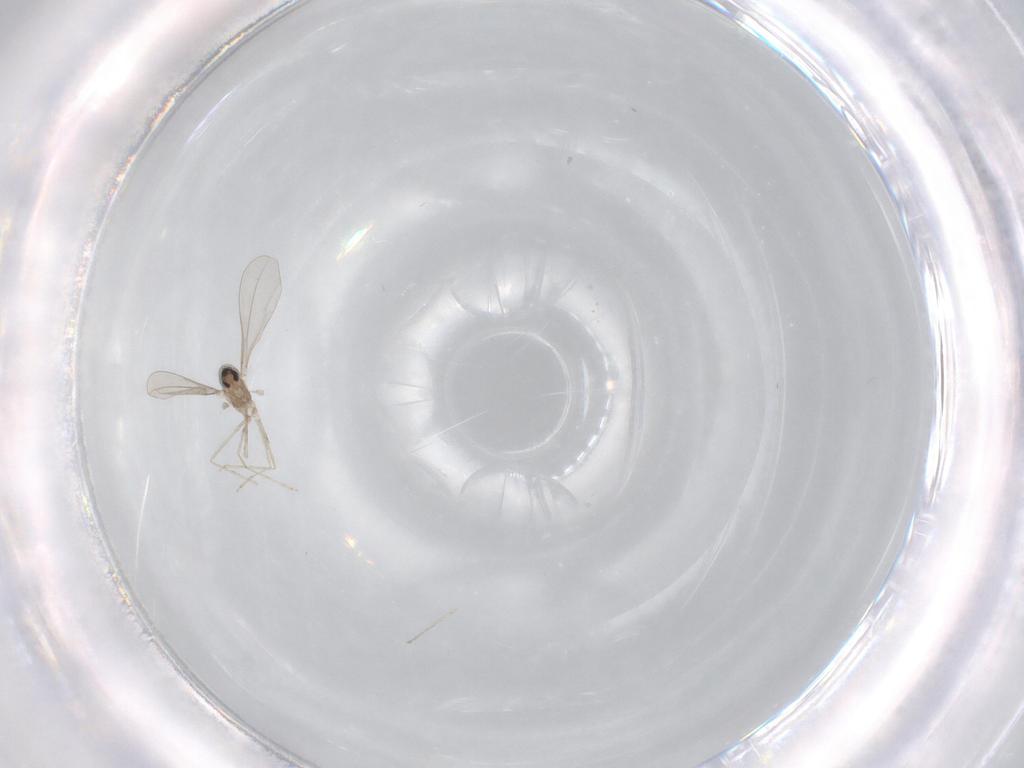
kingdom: Animalia
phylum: Arthropoda
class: Insecta
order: Diptera
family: Cecidomyiidae
